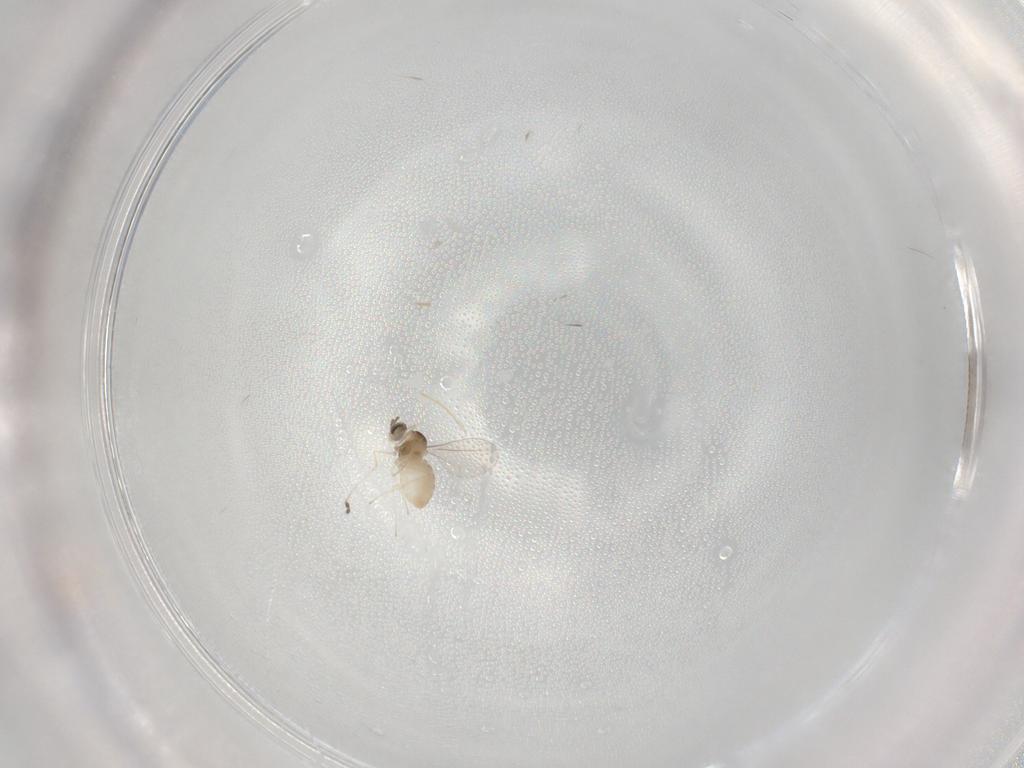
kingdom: Animalia
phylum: Arthropoda
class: Insecta
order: Diptera
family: Cecidomyiidae
